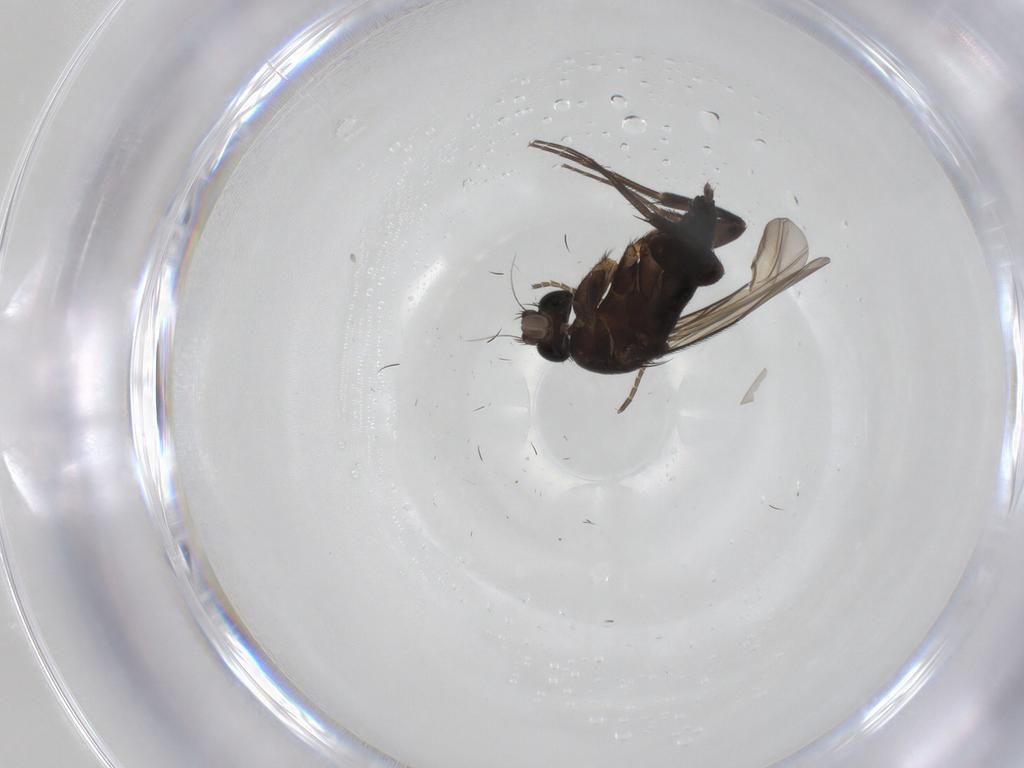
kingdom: Animalia
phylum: Arthropoda
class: Insecta
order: Diptera
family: Phoridae
